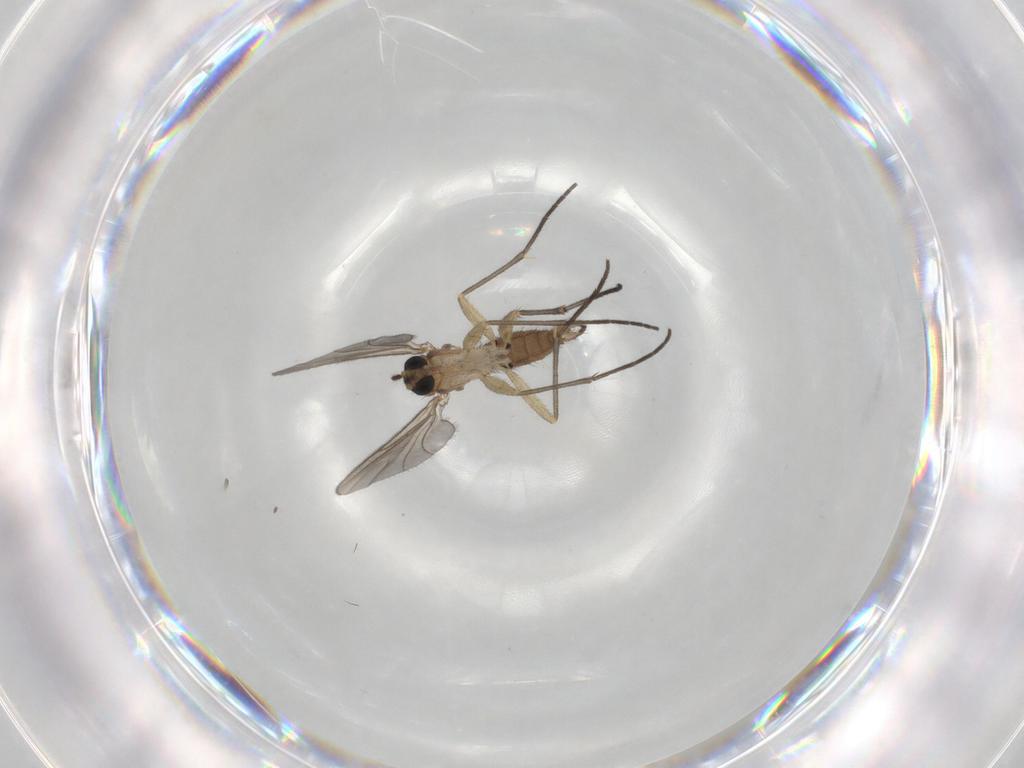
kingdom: Animalia
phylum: Arthropoda
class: Insecta
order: Diptera
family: Sciaridae
